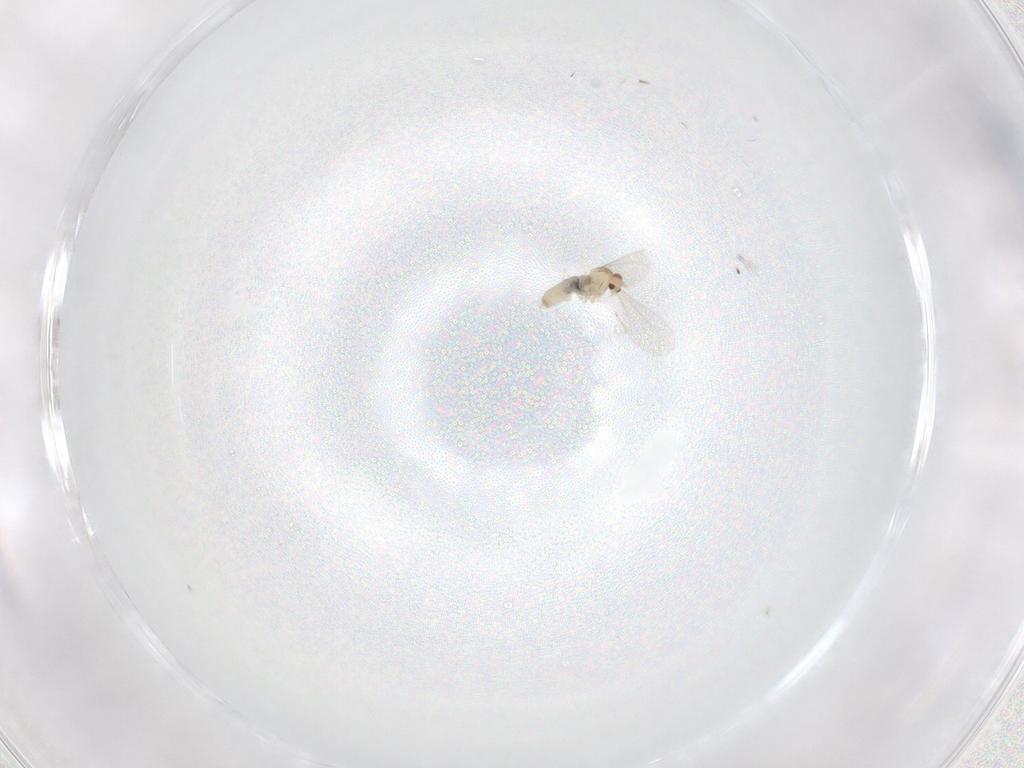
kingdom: Animalia
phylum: Arthropoda
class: Insecta
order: Diptera
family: Cecidomyiidae
